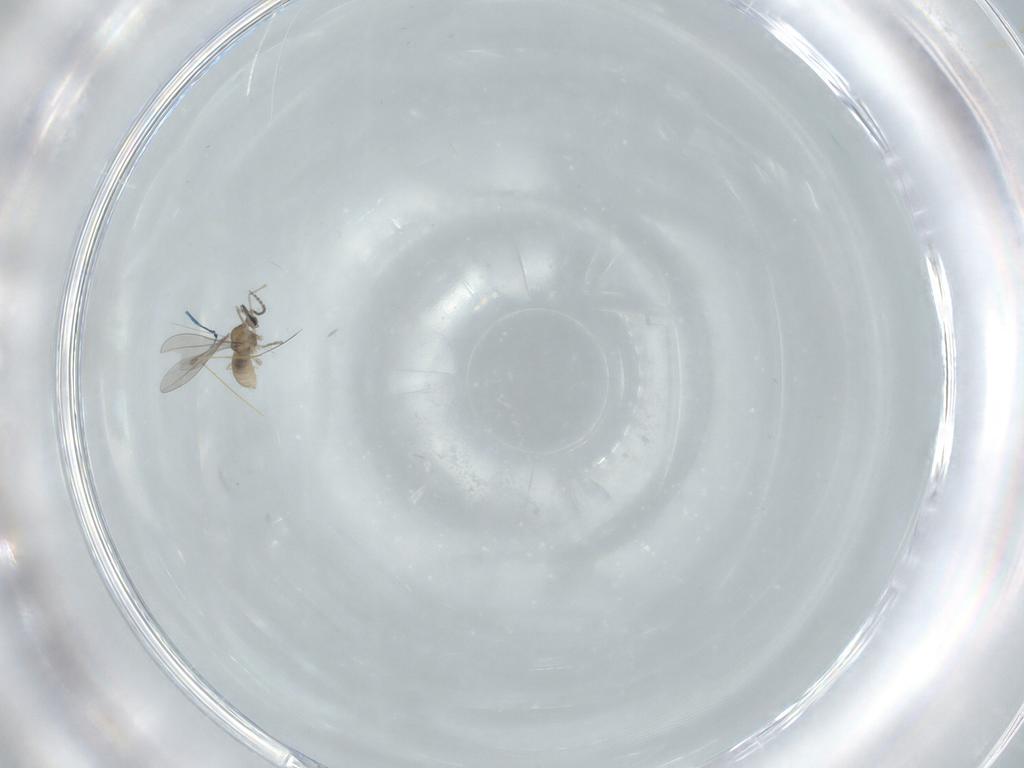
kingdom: Animalia
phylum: Arthropoda
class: Insecta
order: Diptera
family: Cecidomyiidae
